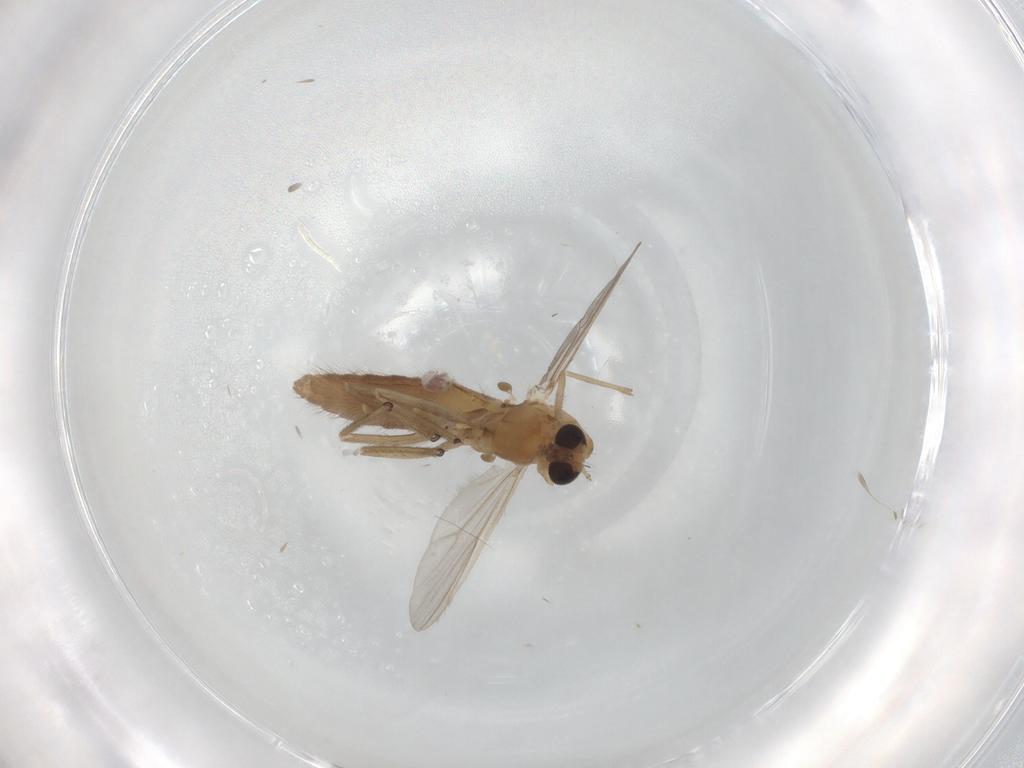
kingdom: Animalia
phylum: Arthropoda
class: Insecta
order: Diptera
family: Chironomidae
